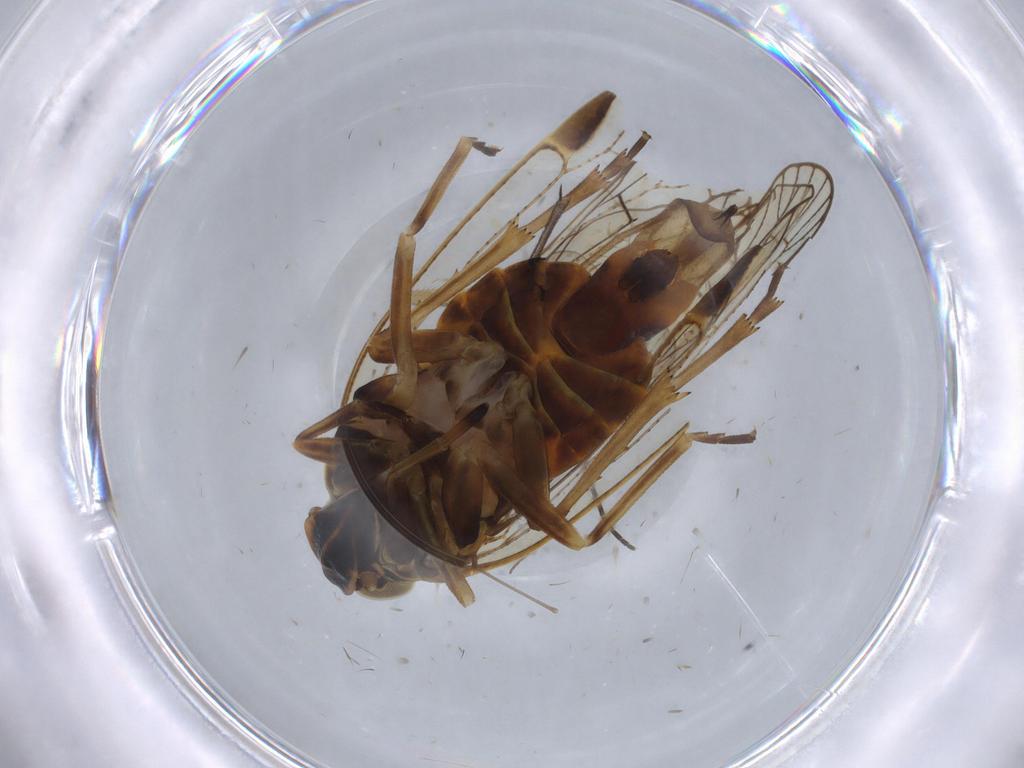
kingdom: Animalia
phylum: Arthropoda
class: Insecta
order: Hemiptera
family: Cixiidae
